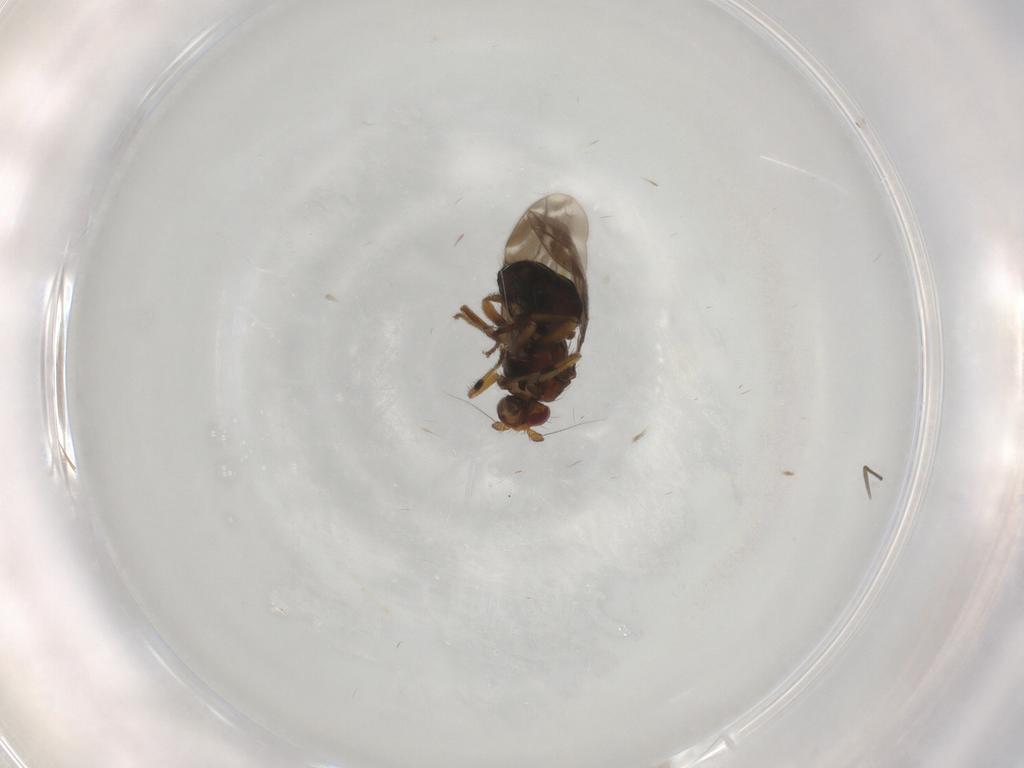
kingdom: Animalia
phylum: Arthropoda
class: Insecta
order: Diptera
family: Sphaeroceridae
